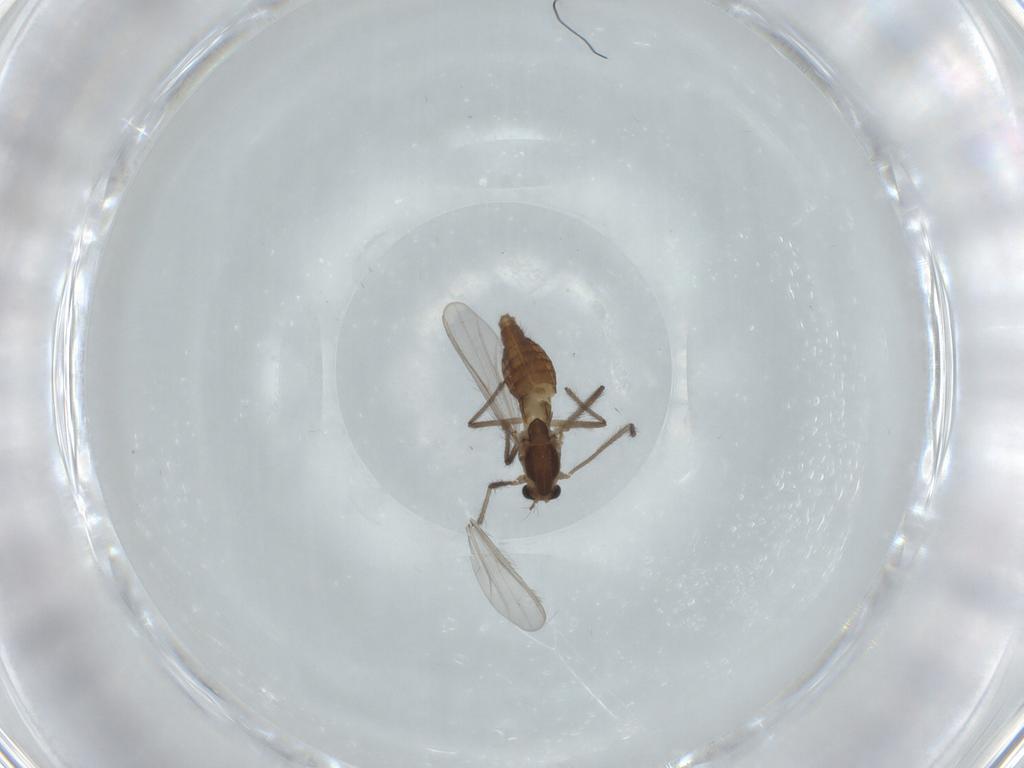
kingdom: Animalia
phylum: Arthropoda
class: Insecta
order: Diptera
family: Chironomidae
